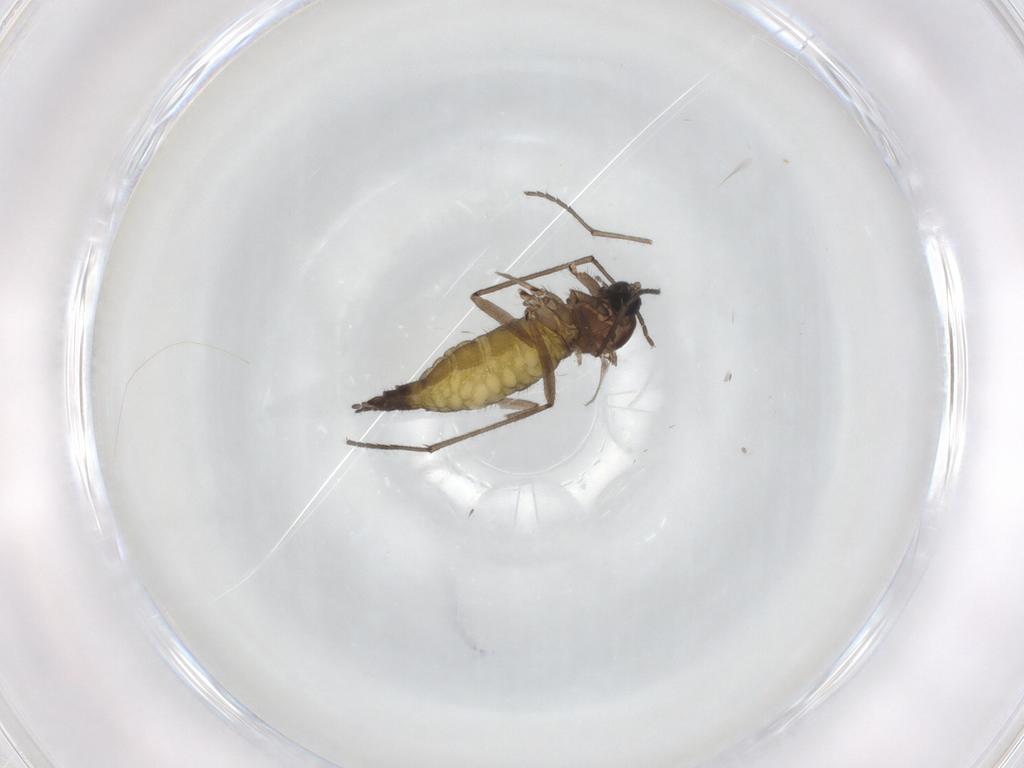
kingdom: Animalia
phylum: Arthropoda
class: Insecta
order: Diptera
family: Sciaridae
